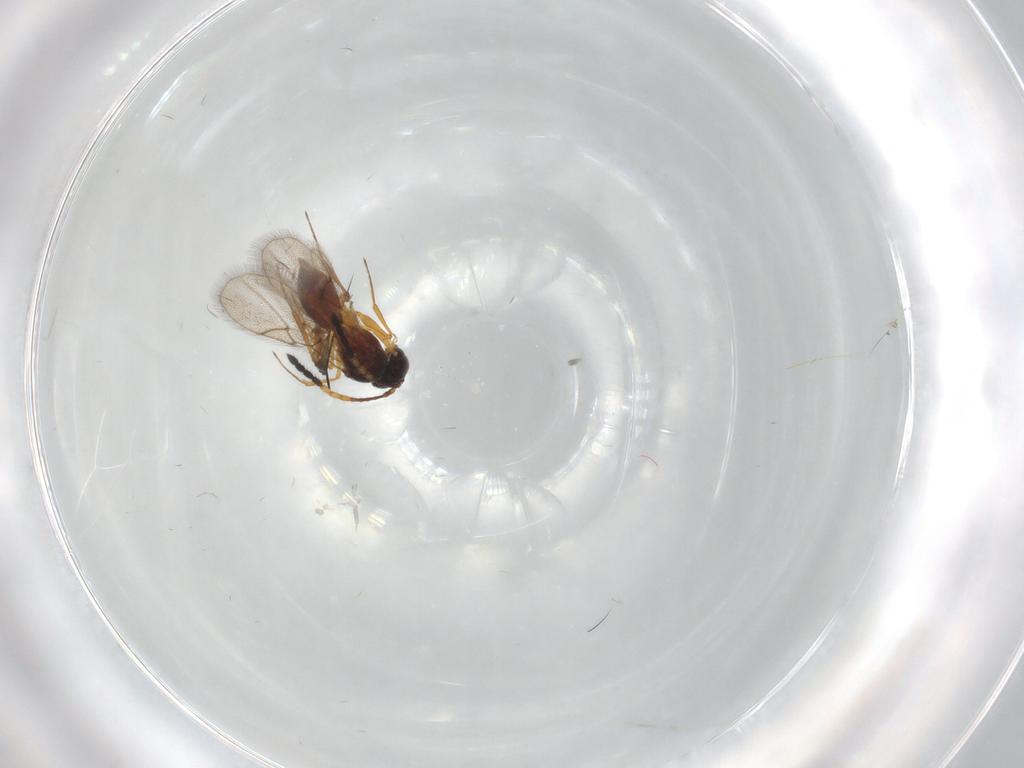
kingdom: Animalia
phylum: Arthropoda
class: Insecta
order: Hymenoptera
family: Figitidae
